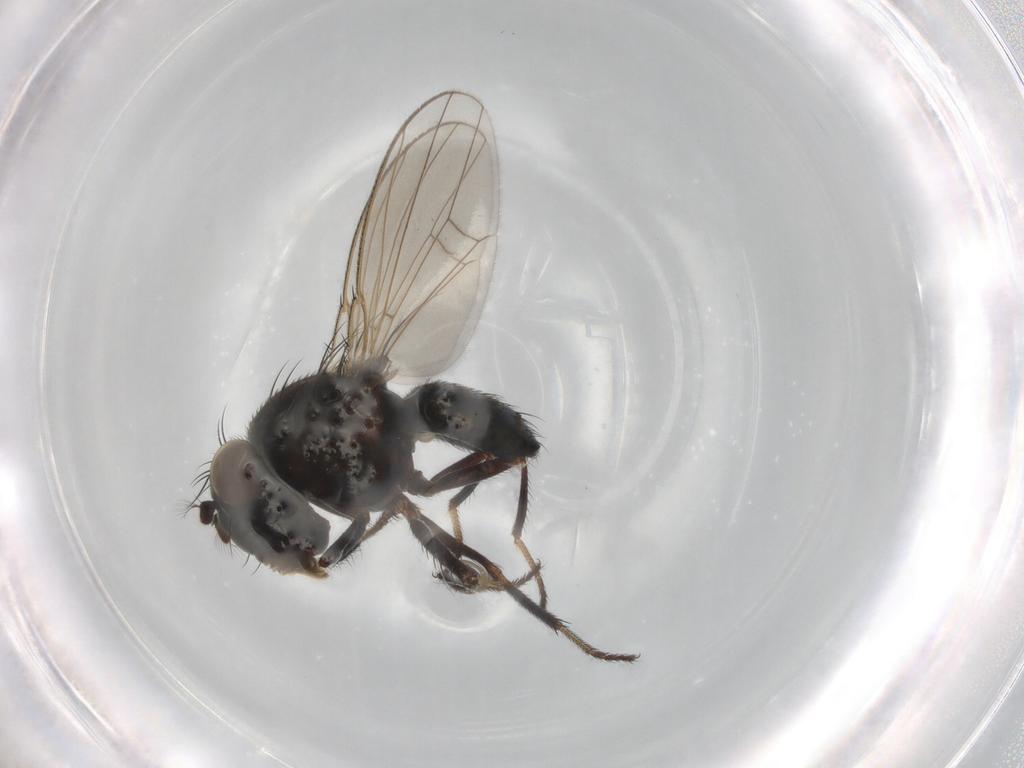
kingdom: Animalia
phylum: Arthropoda
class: Insecta
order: Diptera
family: Ephydridae
